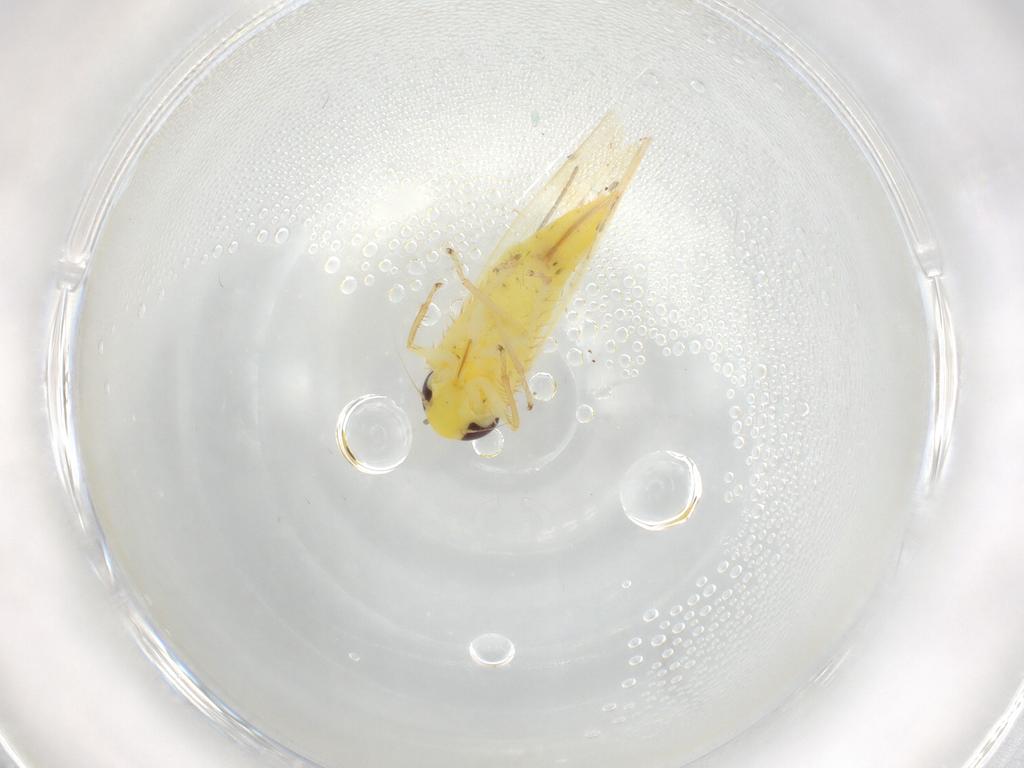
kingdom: Animalia
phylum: Arthropoda
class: Insecta
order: Hemiptera
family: Cicadellidae
